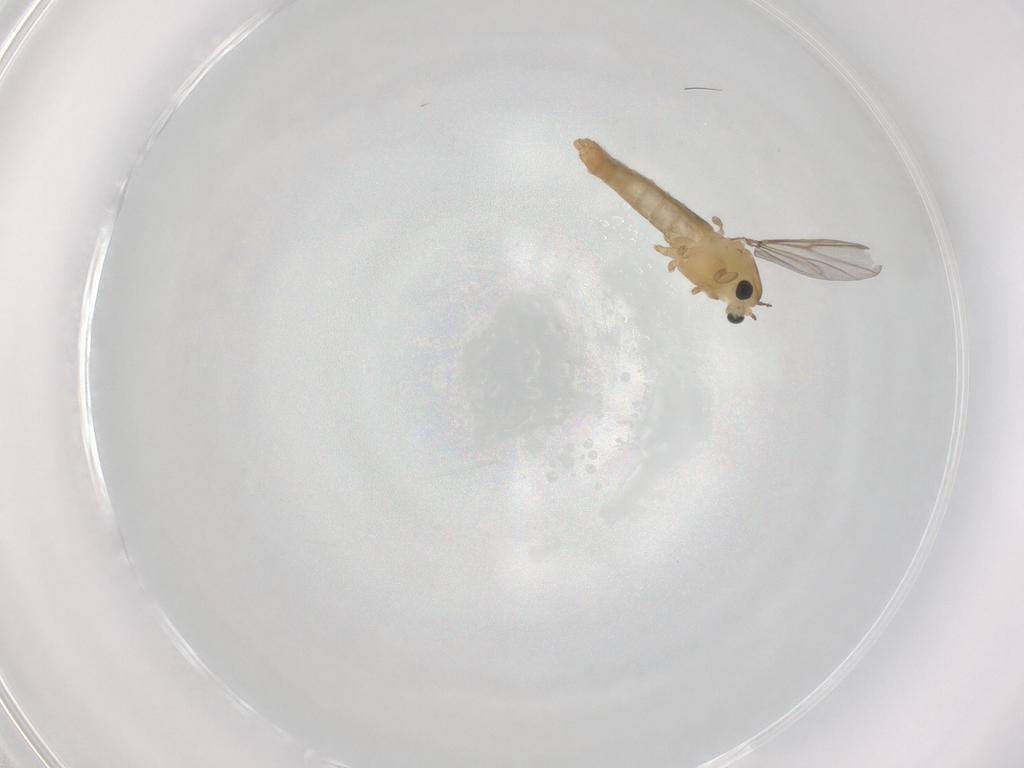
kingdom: Animalia
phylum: Arthropoda
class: Insecta
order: Diptera
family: Chironomidae
